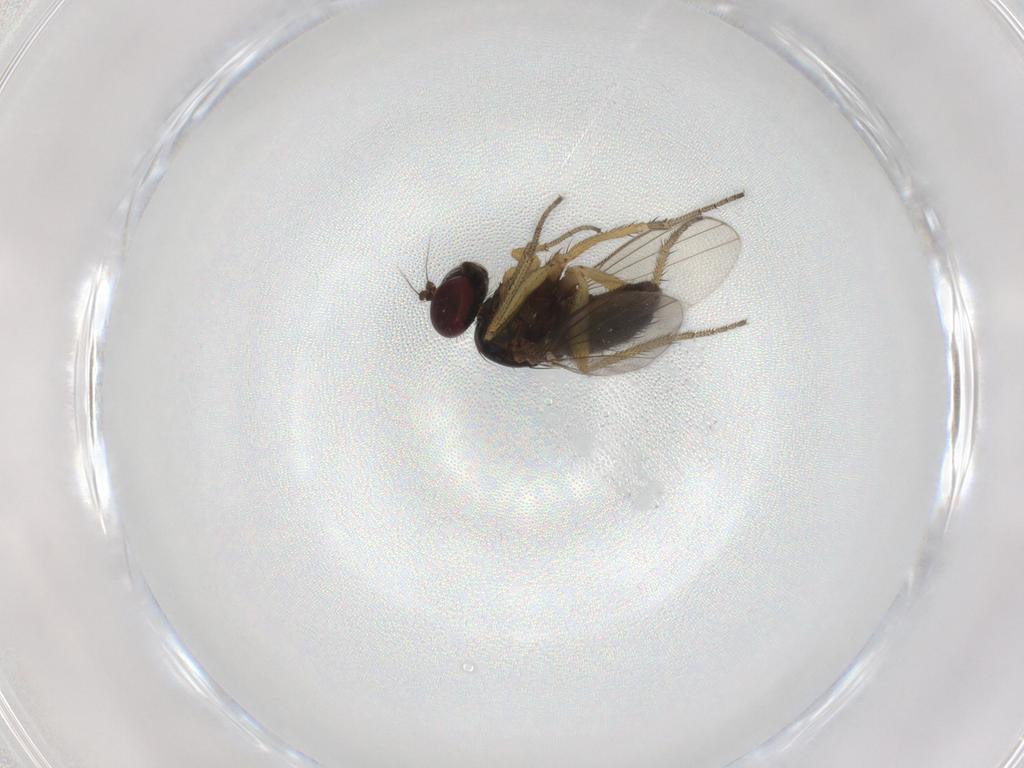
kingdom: Animalia
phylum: Arthropoda
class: Insecta
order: Diptera
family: Dolichopodidae
